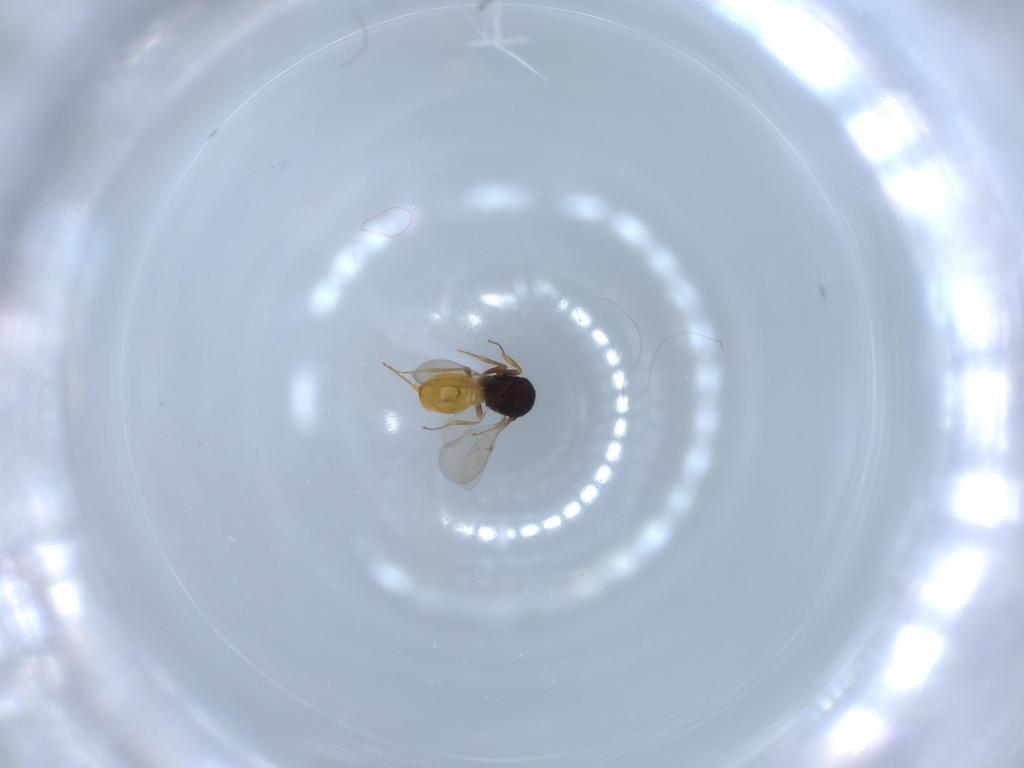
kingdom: Animalia
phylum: Arthropoda
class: Insecta
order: Hymenoptera
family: Scelionidae
